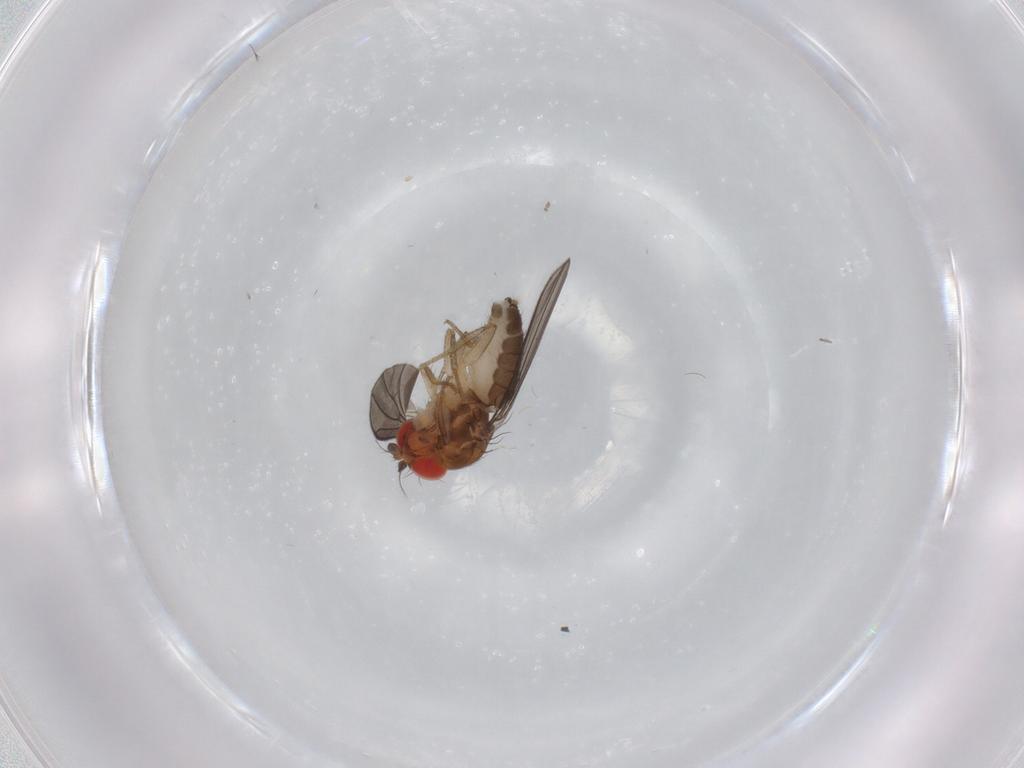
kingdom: Animalia
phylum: Arthropoda
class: Insecta
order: Diptera
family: Drosophilidae
